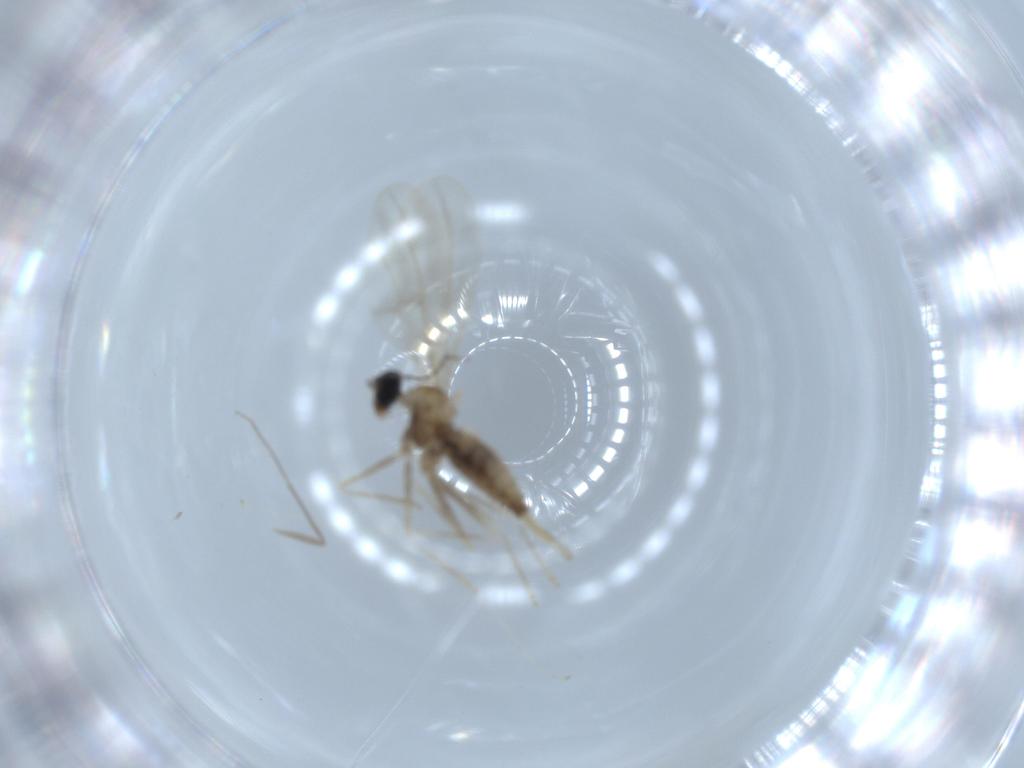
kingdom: Animalia
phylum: Arthropoda
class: Insecta
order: Diptera
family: Cecidomyiidae
